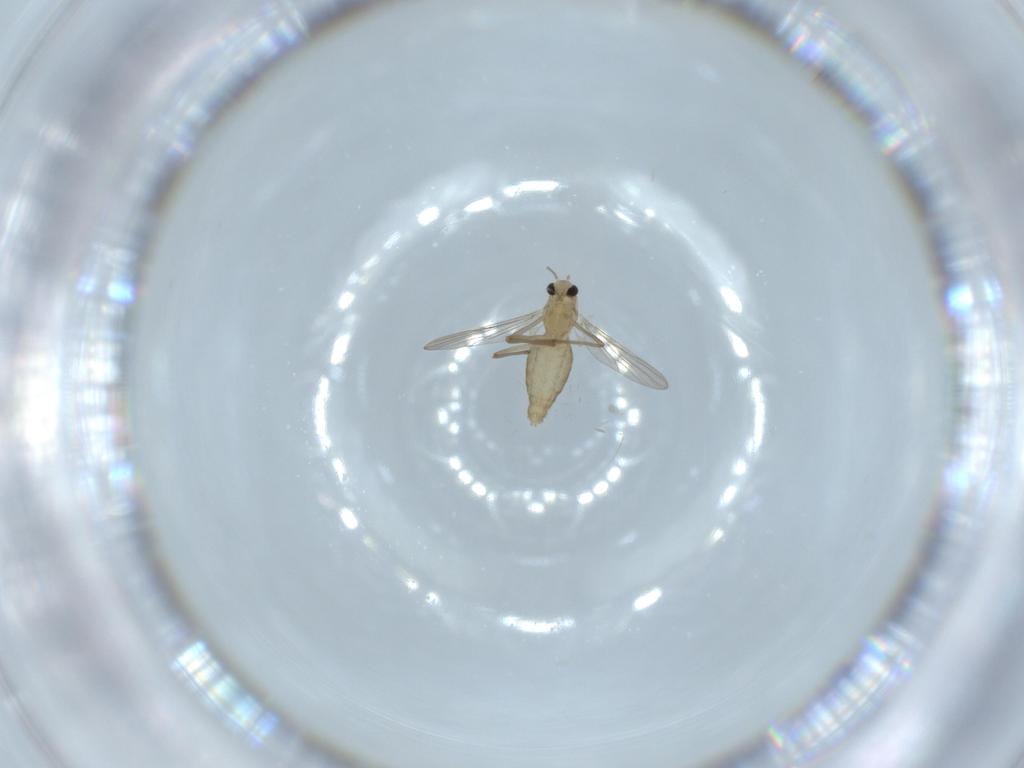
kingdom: Animalia
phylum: Arthropoda
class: Insecta
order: Diptera
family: Chironomidae
